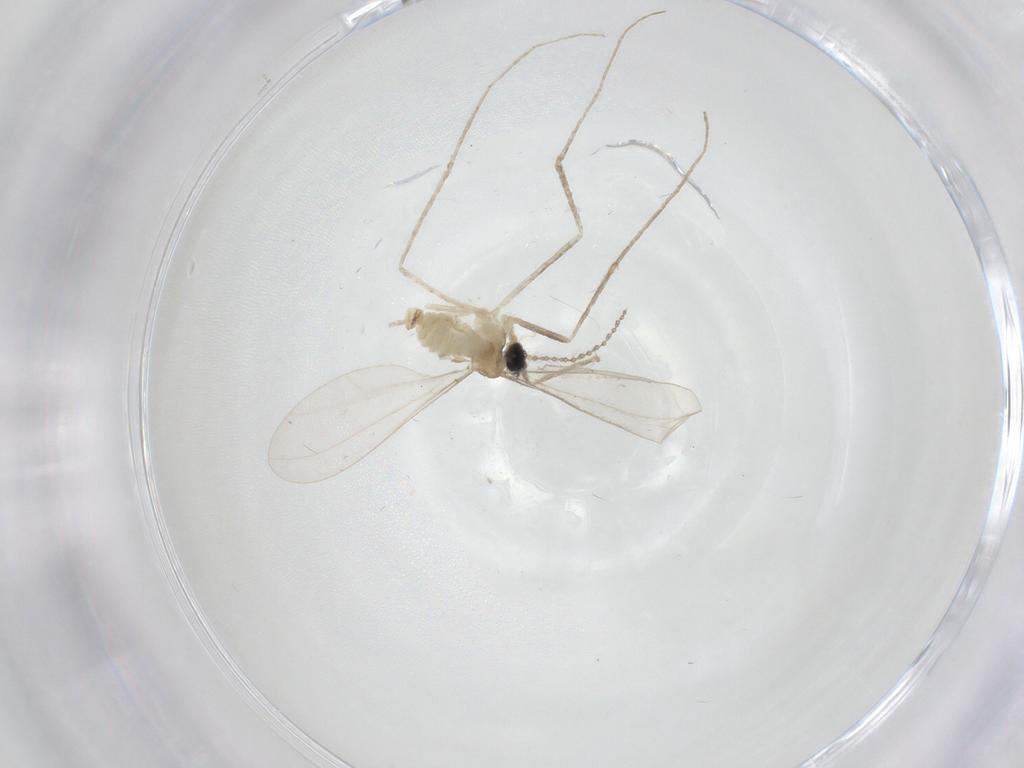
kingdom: Animalia
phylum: Arthropoda
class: Insecta
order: Diptera
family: Cecidomyiidae
